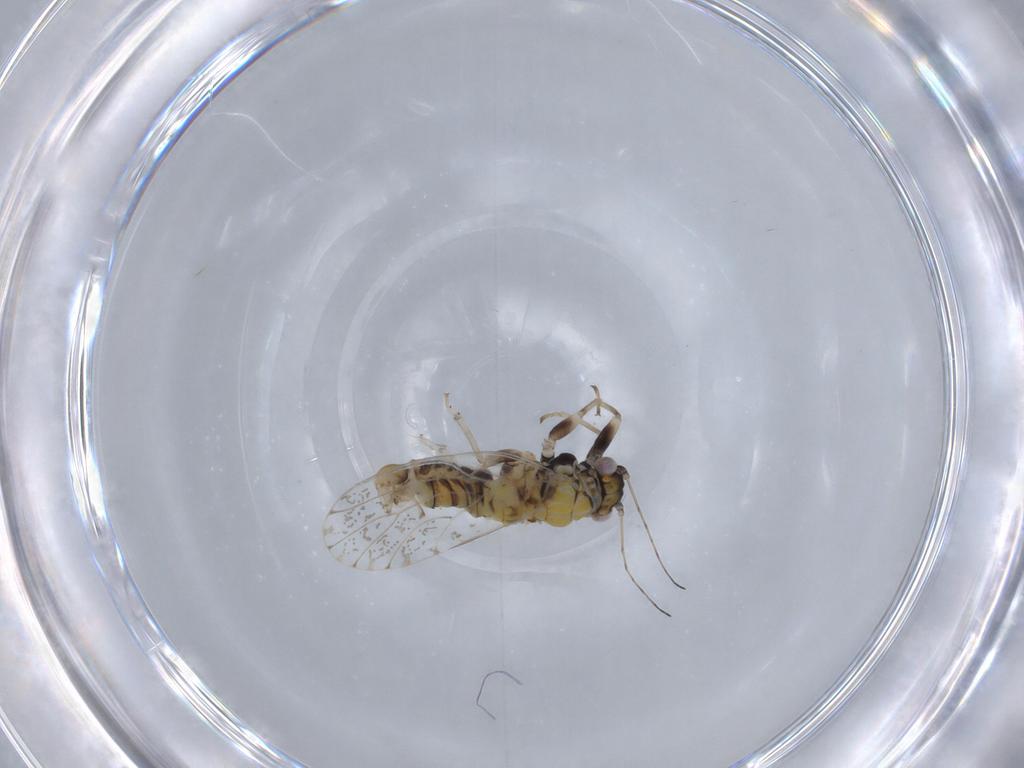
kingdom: Animalia
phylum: Arthropoda
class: Insecta
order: Hemiptera
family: Psyllidae
